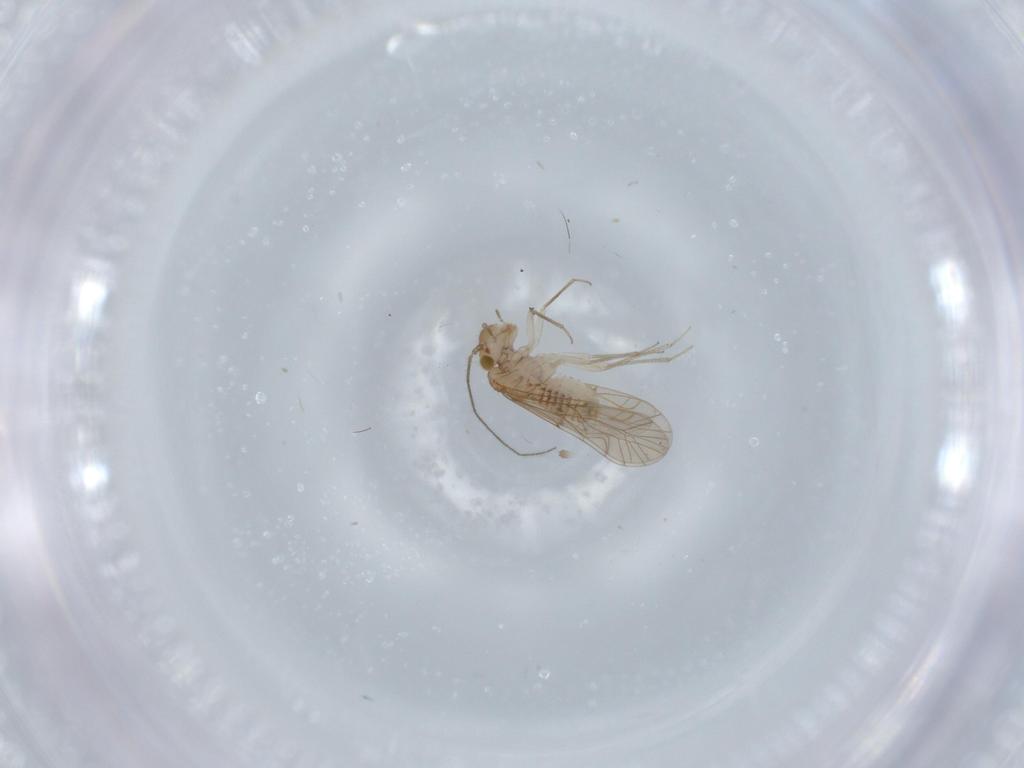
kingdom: Animalia
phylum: Arthropoda
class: Insecta
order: Psocodea
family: Lachesillidae
